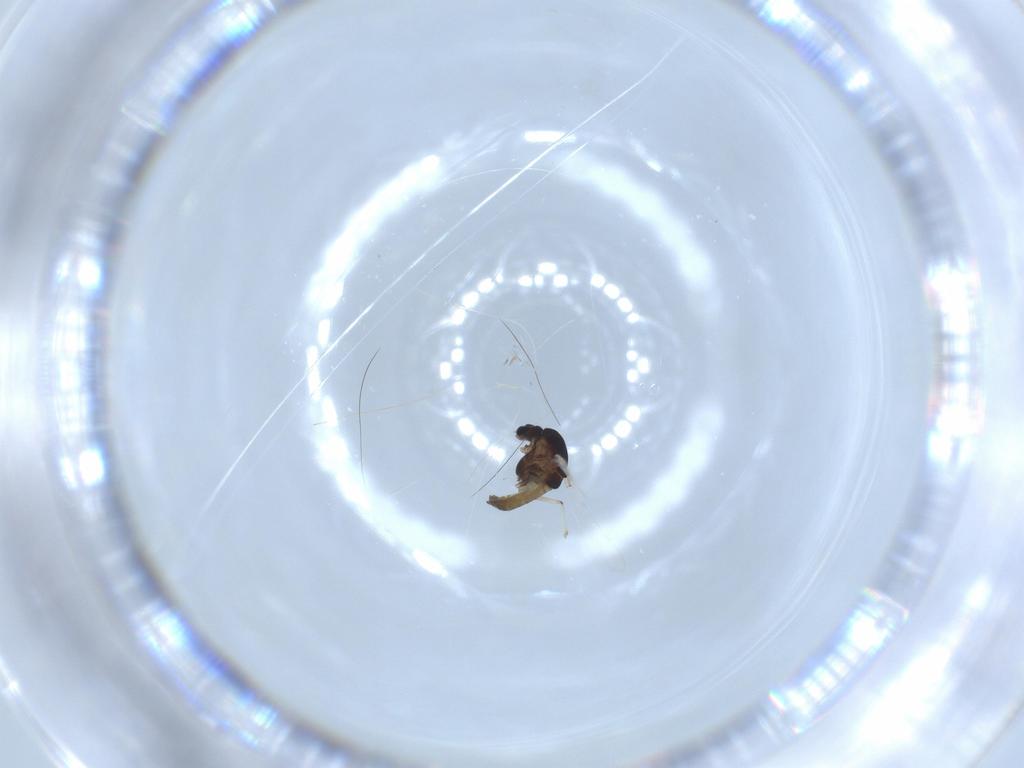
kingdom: Animalia
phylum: Arthropoda
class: Insecta
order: Diptera
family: Chironomidae
